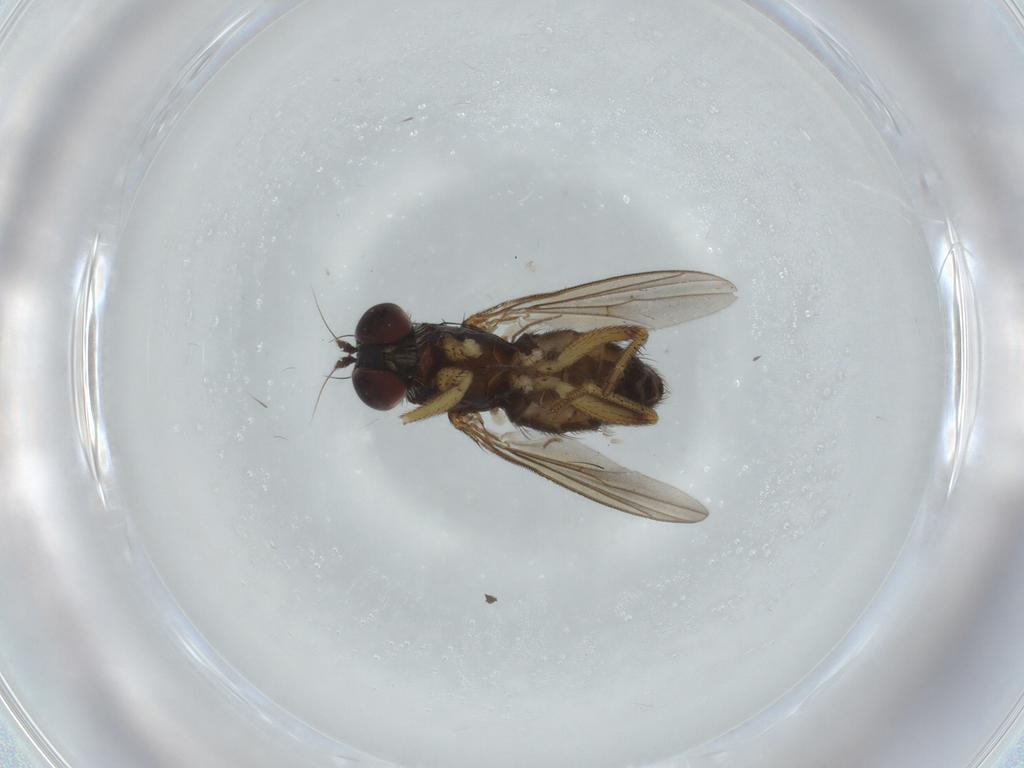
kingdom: Animalia
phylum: Arthropoda
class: Insecta
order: Diptera
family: Dolichopodidae
